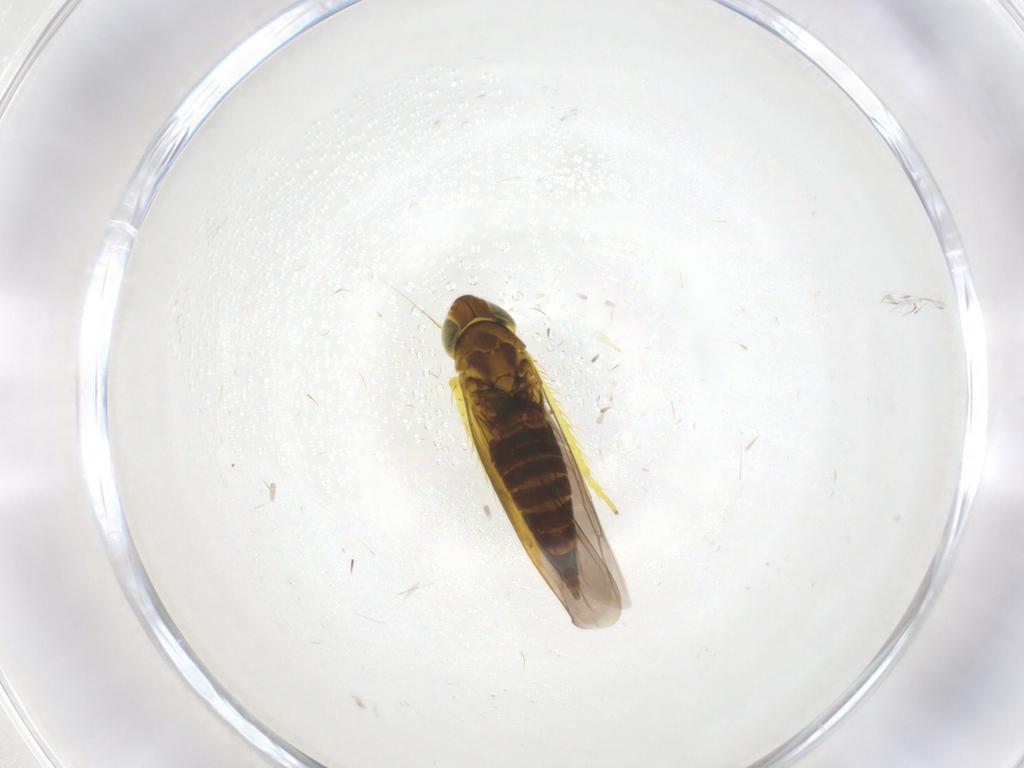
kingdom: Animalia
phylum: Arthropoda
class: Insecta
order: Hemiptera
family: Cicadellidae
